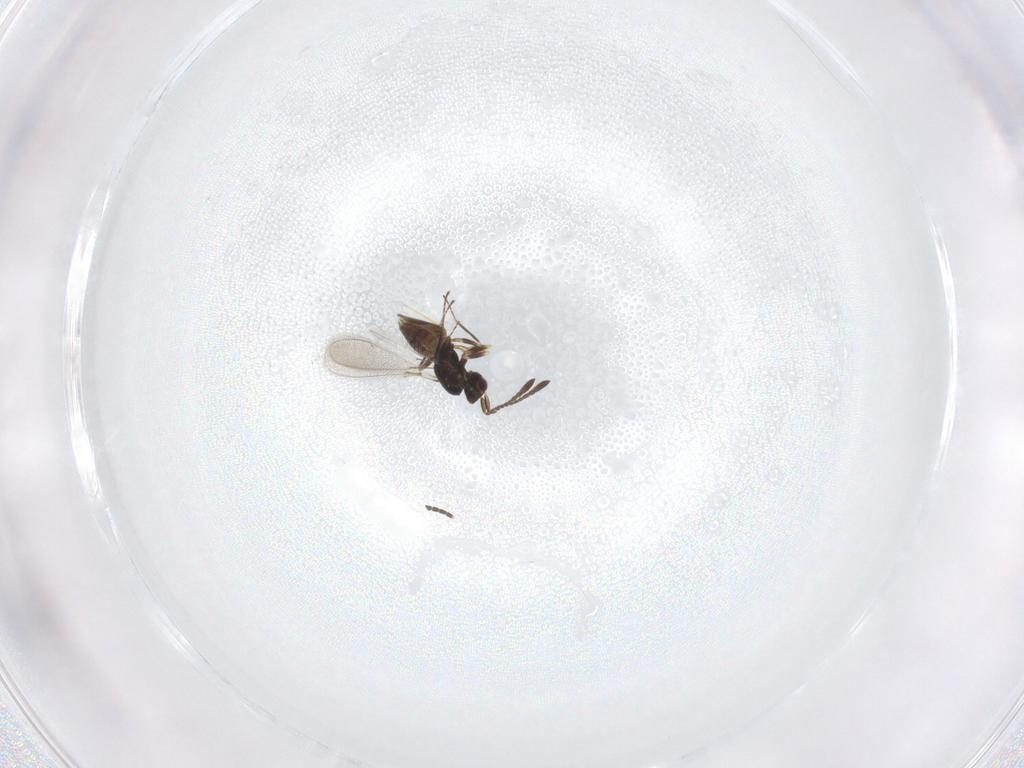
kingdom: Animalia
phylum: Arthropoda
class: Insecta
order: Hymenoptera
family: Mymaridae
